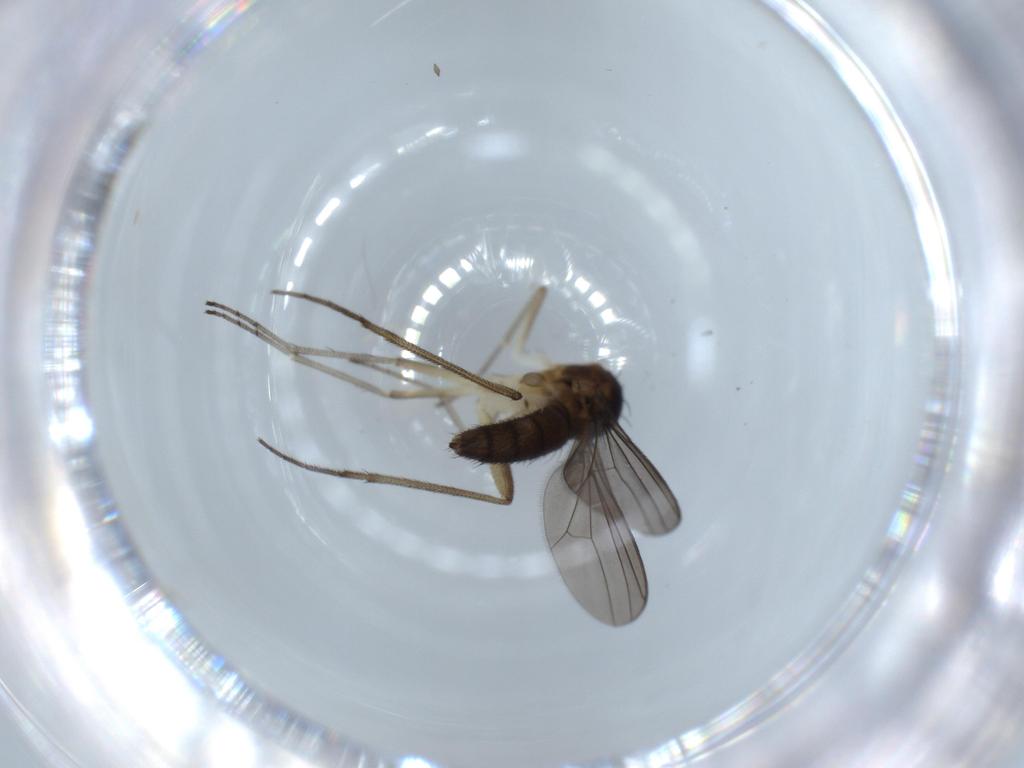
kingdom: Animalia
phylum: Arthropoda
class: Insecta
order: Diptera
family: Dolichopodidae
